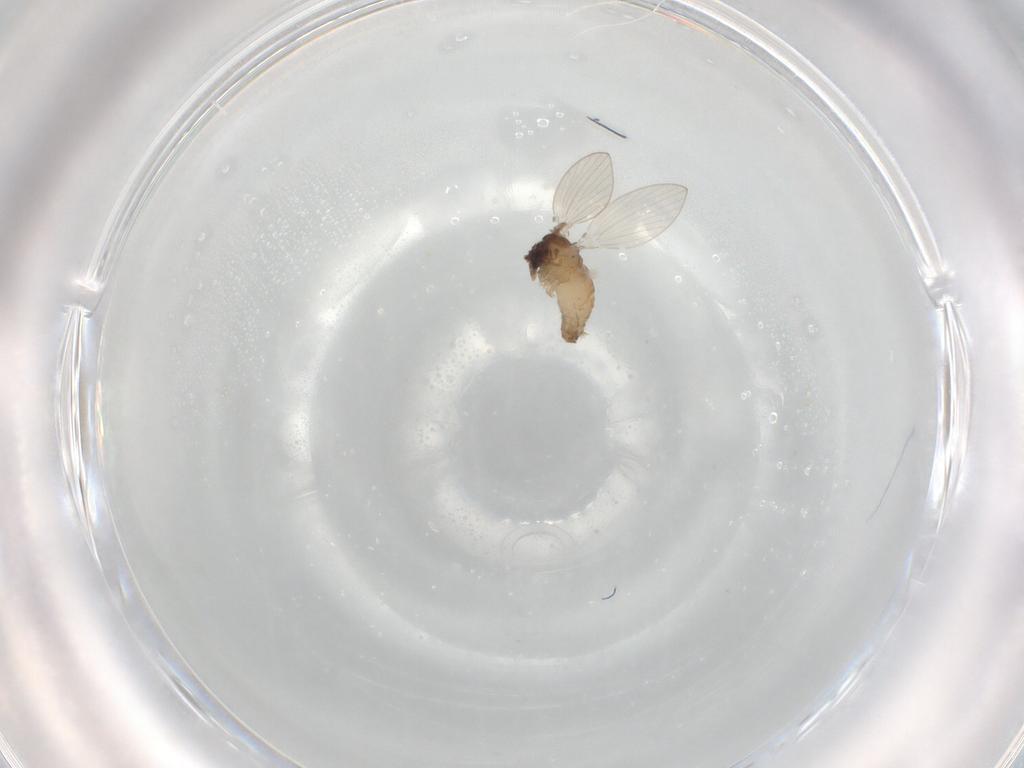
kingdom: Animalia
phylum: Arthropoda
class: Insecta
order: Diptera
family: Psychodidae
